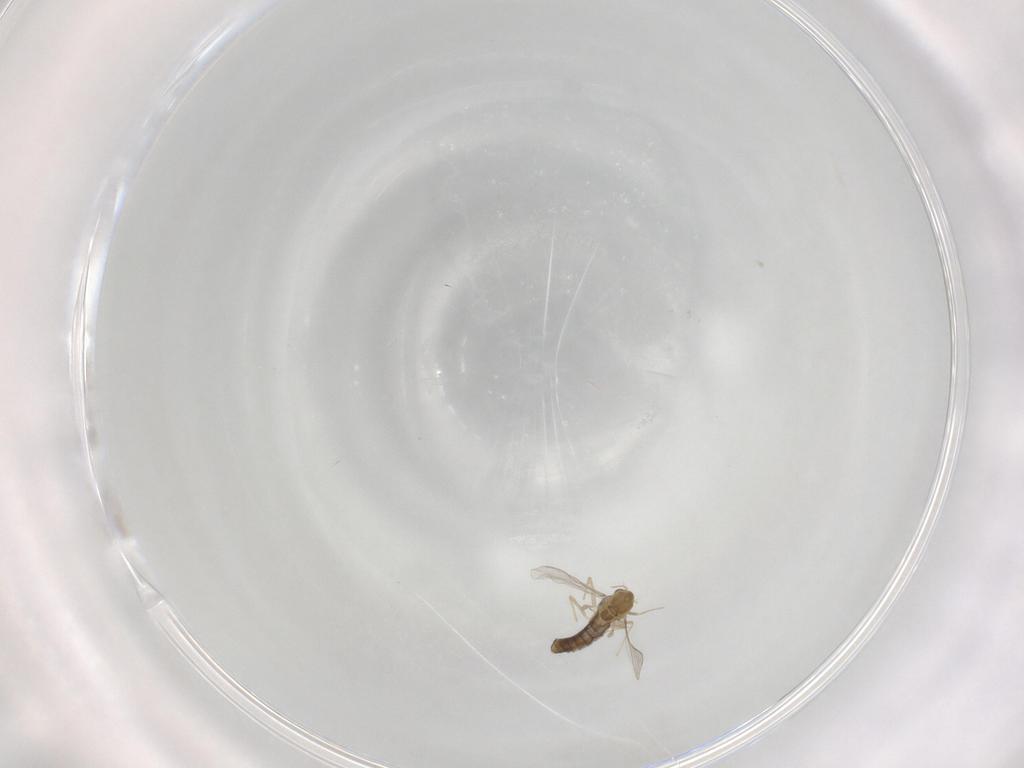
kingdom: Animalia
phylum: Arthropoda
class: Insecta
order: Diptera
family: Chironomidae
